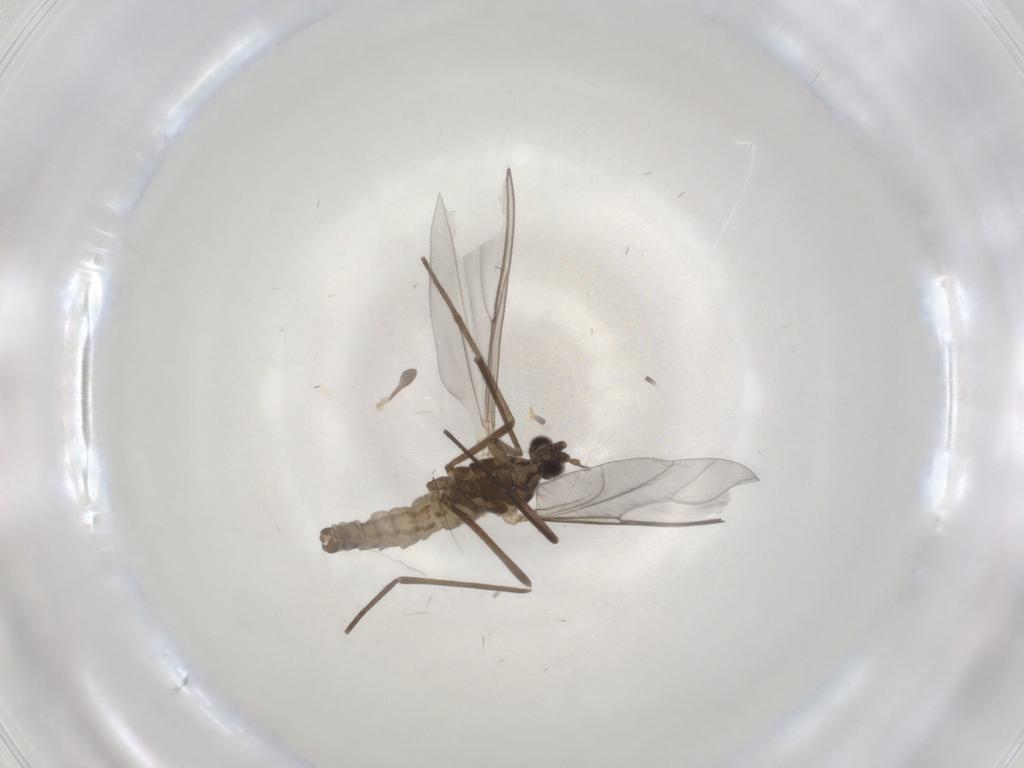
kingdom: Animalia
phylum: Arthropoda
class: Insecta
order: Diptera
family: Cecidomyiidae
